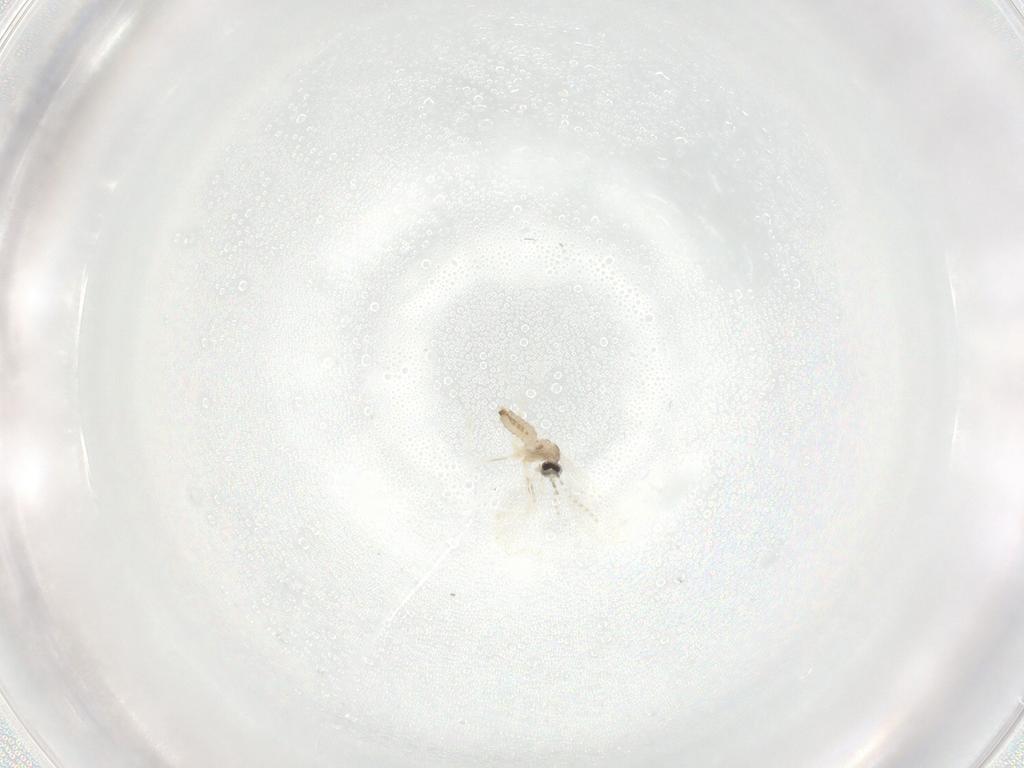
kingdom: Animalia
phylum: Arthropoda
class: Insecta
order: Diptera
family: Cecidomyiidae
